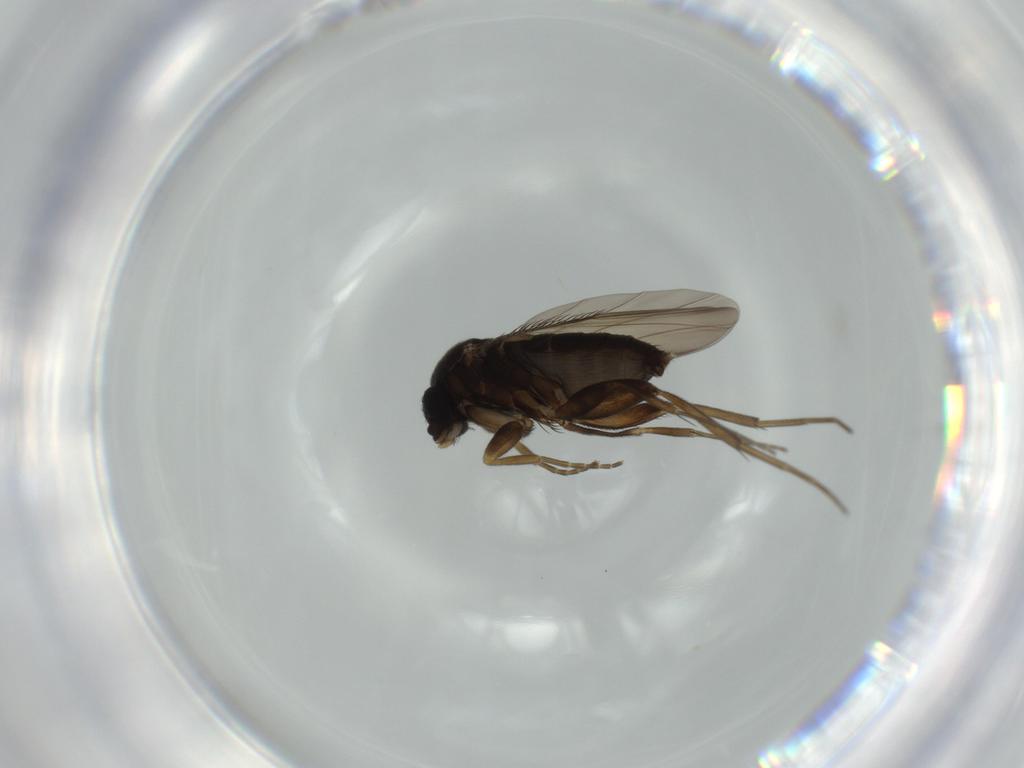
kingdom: Animalia
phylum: Arthropoda
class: Insecta
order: Diptera
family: Phoridae
